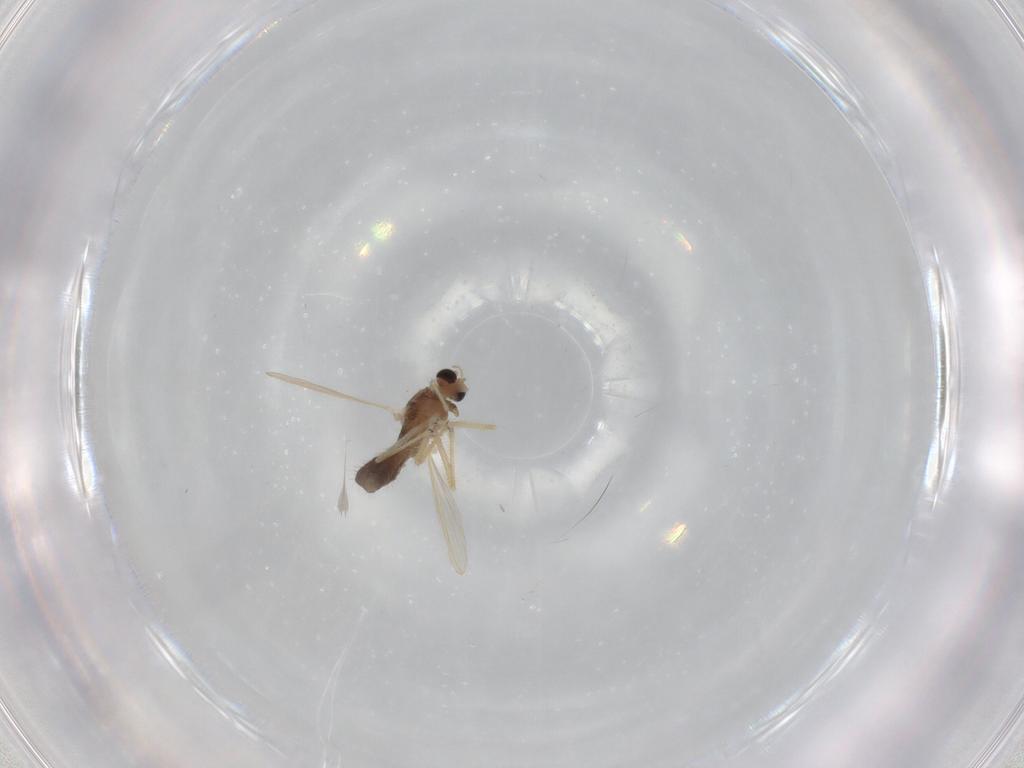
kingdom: Animalia
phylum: Arthropoda
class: Insecta
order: Diptera
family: Chironomidae
